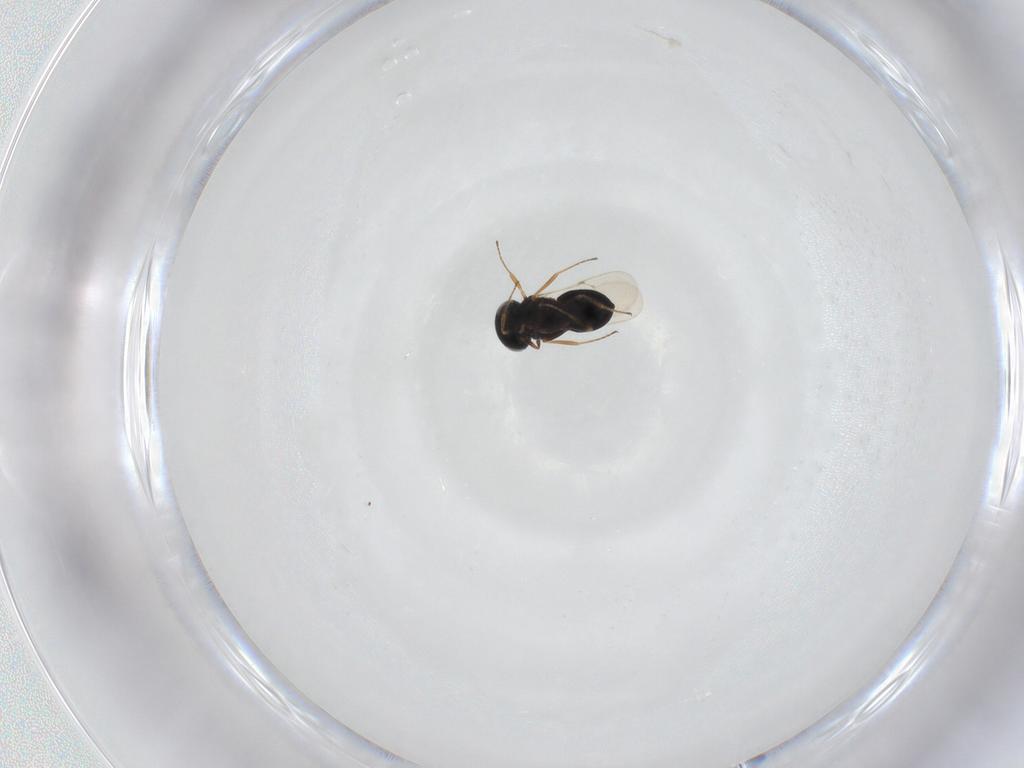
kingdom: Animalia
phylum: Arthropoda
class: Insecta
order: Hymenoptera
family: Scelionidae
